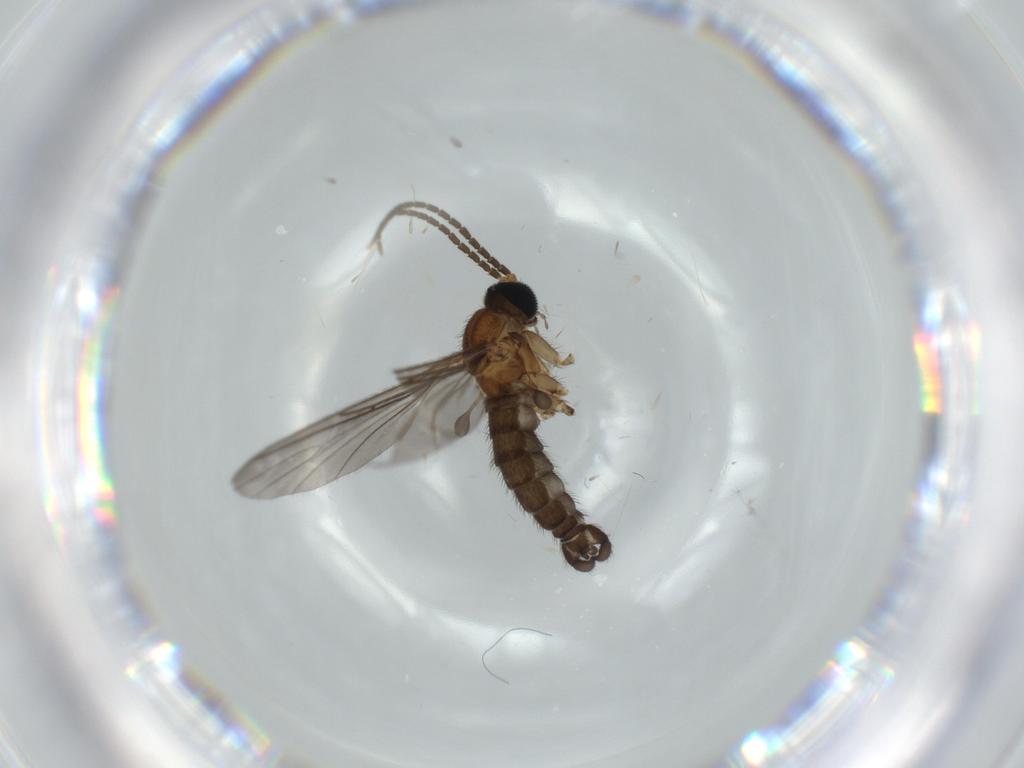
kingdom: Animalia
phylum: Arthropoda
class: Insecta
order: Diptera
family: Sciaridae
